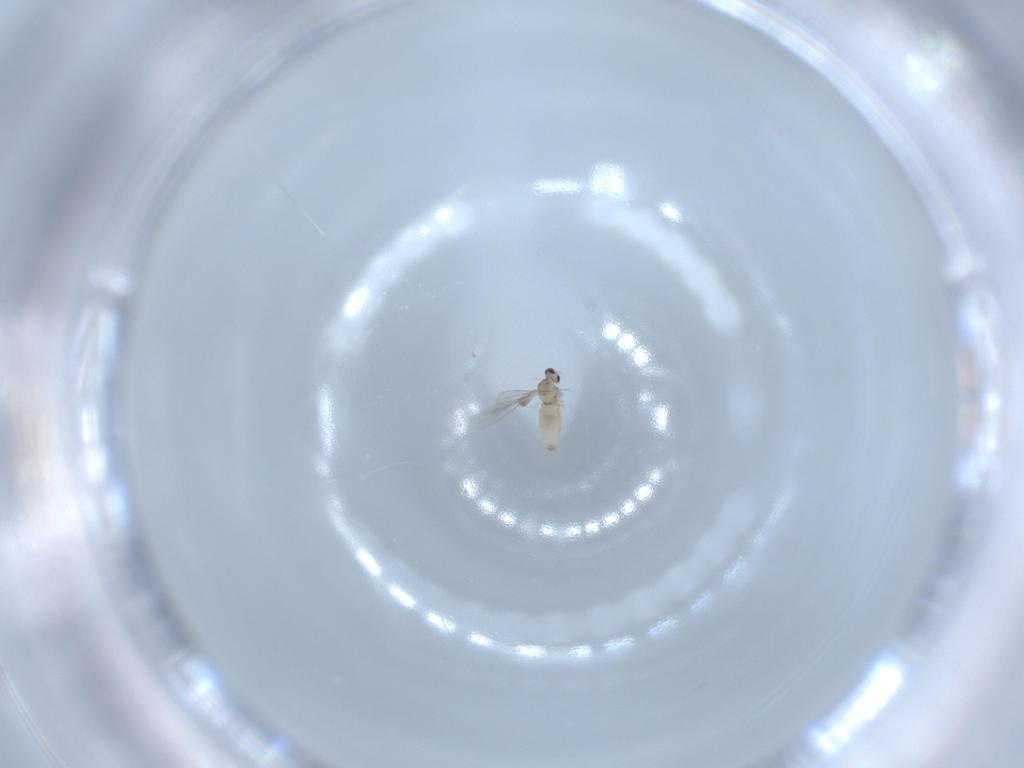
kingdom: Animalia
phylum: Arthropoda
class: Insecta
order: Diptera
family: Cecidomyiidae
